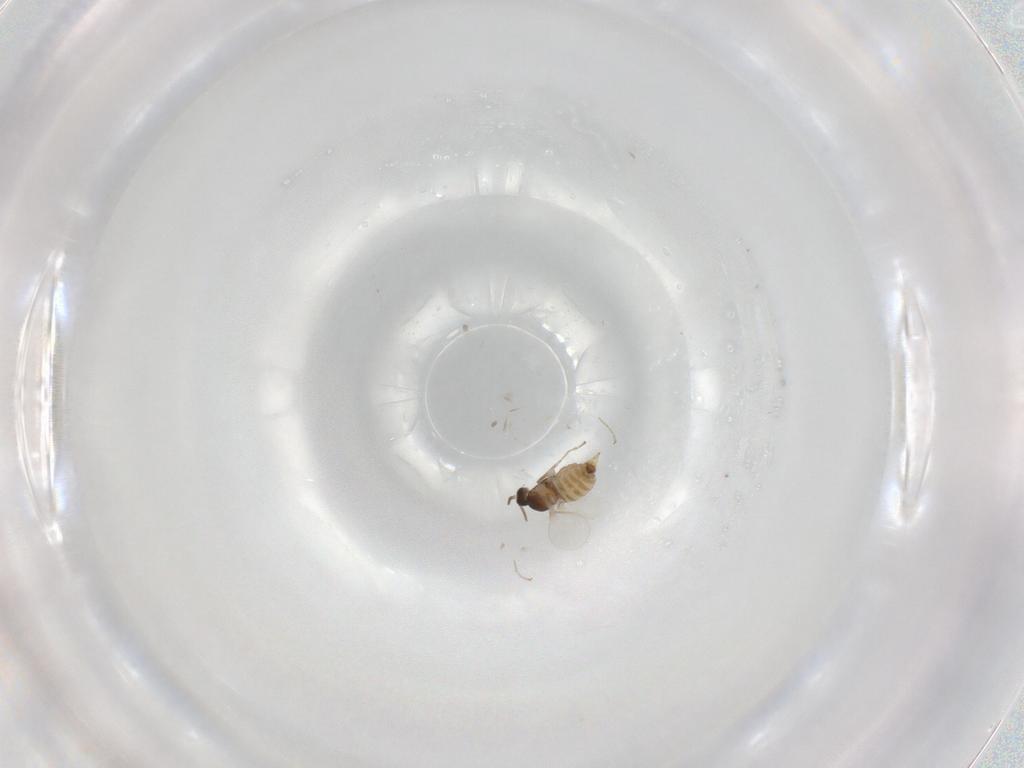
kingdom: Animalia
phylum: Arthropoda
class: Insecta
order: Diptera
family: Cecidomyiidae
